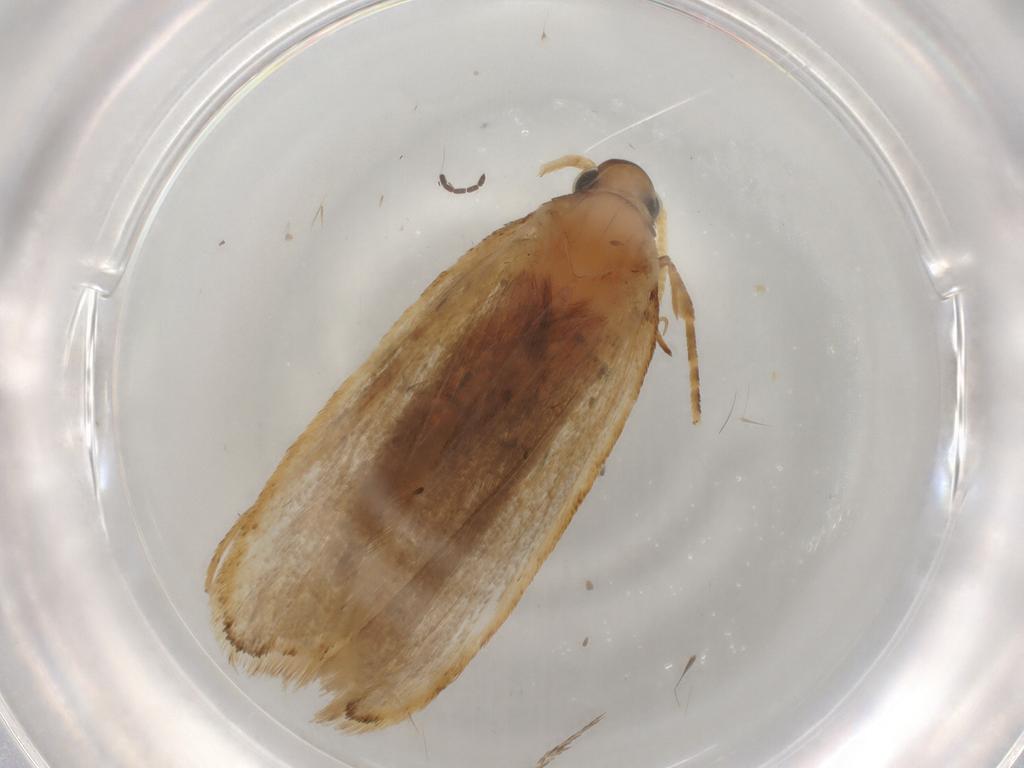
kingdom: Animalia
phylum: Arthropoda
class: Insecta
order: Lepidoptera
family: Lecithoceridae
